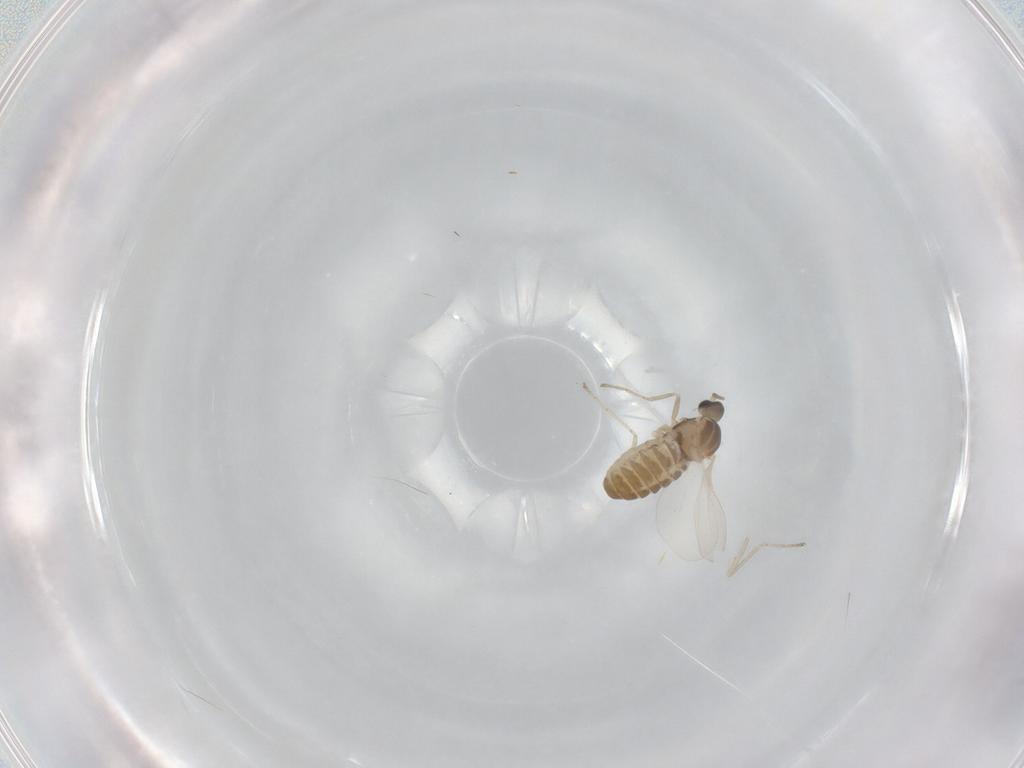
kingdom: Animalia
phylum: Arthropoda
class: Insecta
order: Diptera
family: Cecidomyiidae
